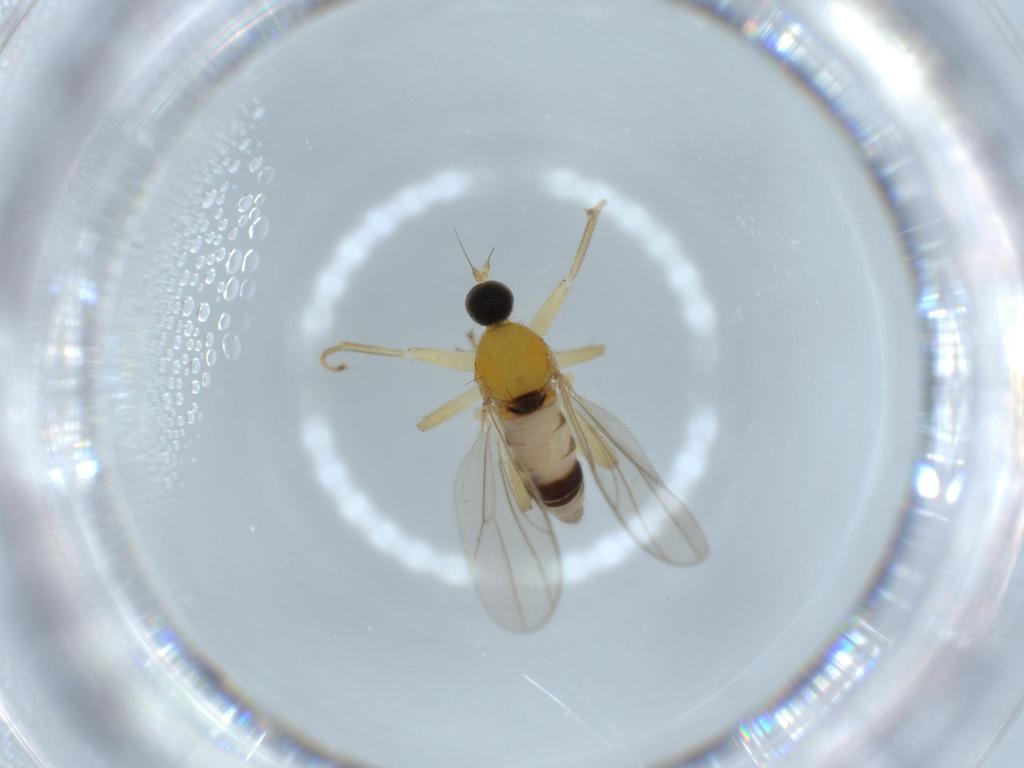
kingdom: Animalia
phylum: Arthropoda
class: Insecta
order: Diptera
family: Hybotidae
